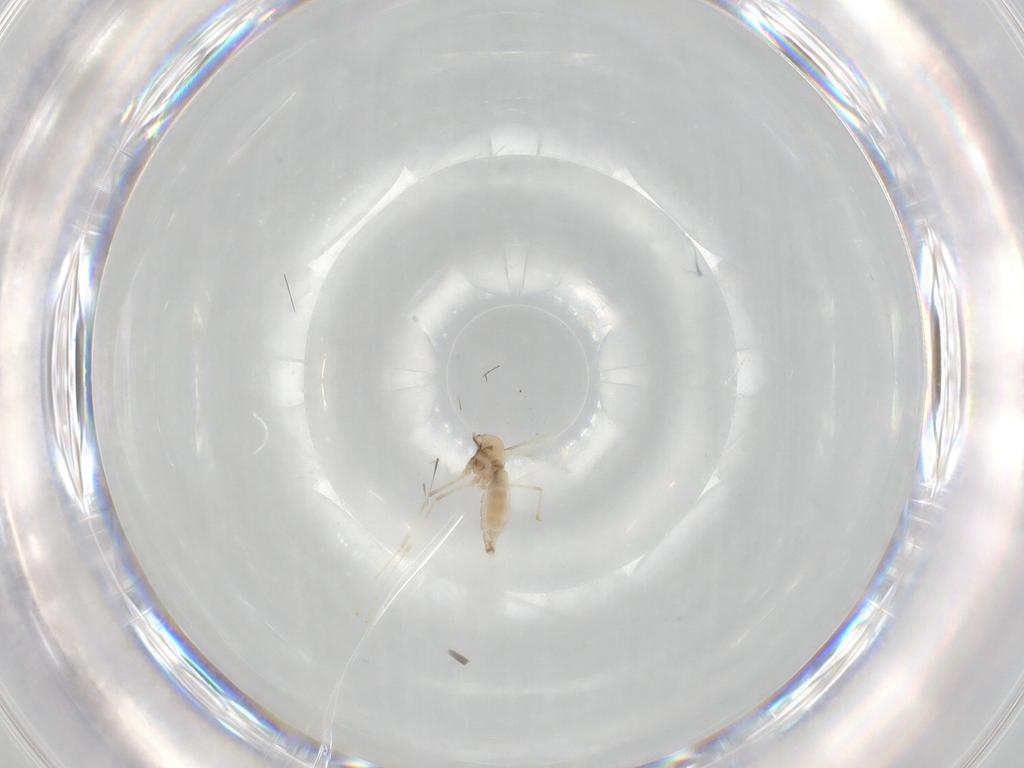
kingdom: Animalia
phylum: Arthropoda
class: Insecta
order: Diptera
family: Cecidomyiidae
